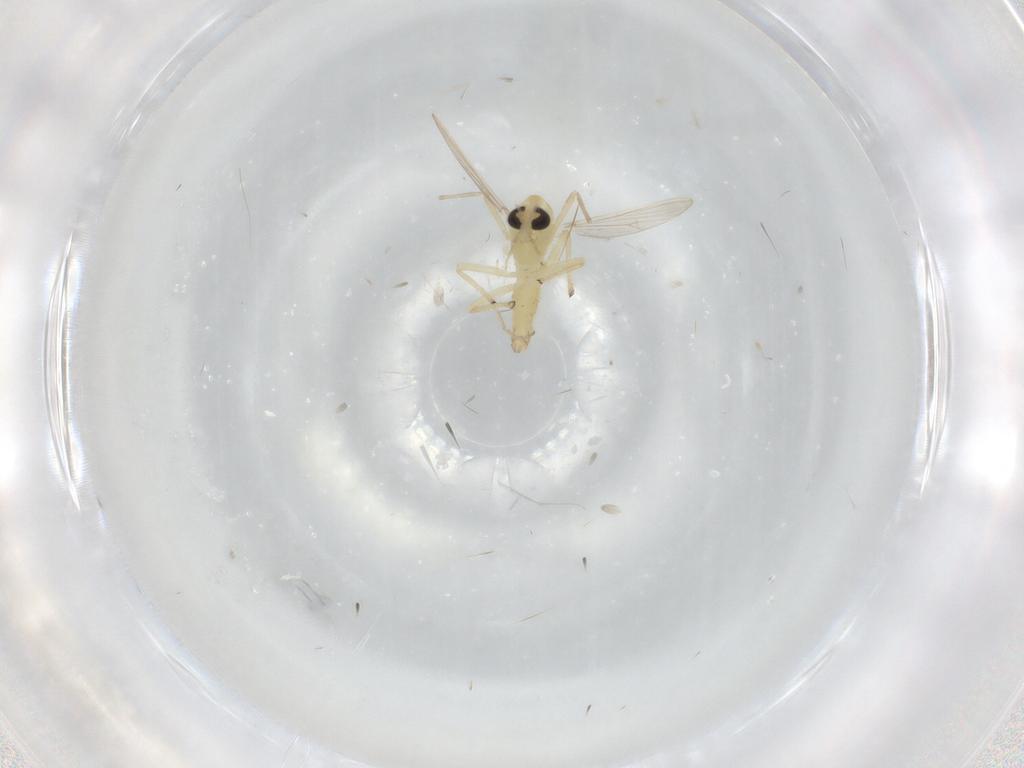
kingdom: Animalia
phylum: Arthropoda
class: Insecta
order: Diptera
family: Chironomidae
